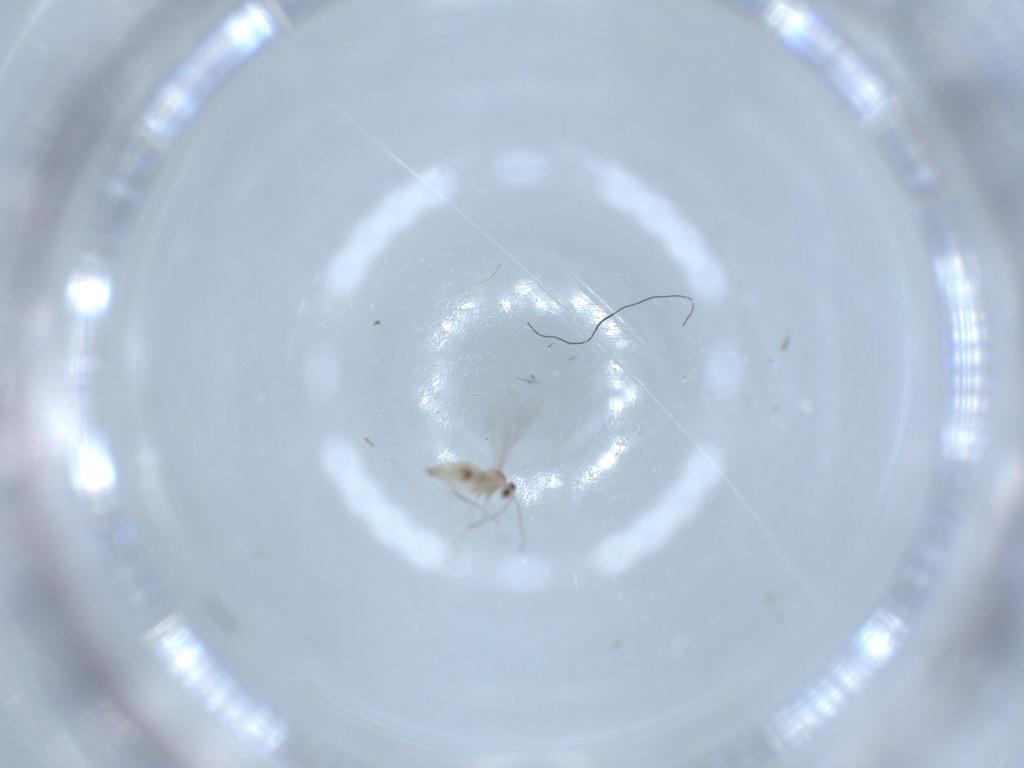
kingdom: Animalia
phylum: Arthropoda
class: Insecta
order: Diptera
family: Cecidomyiidae
